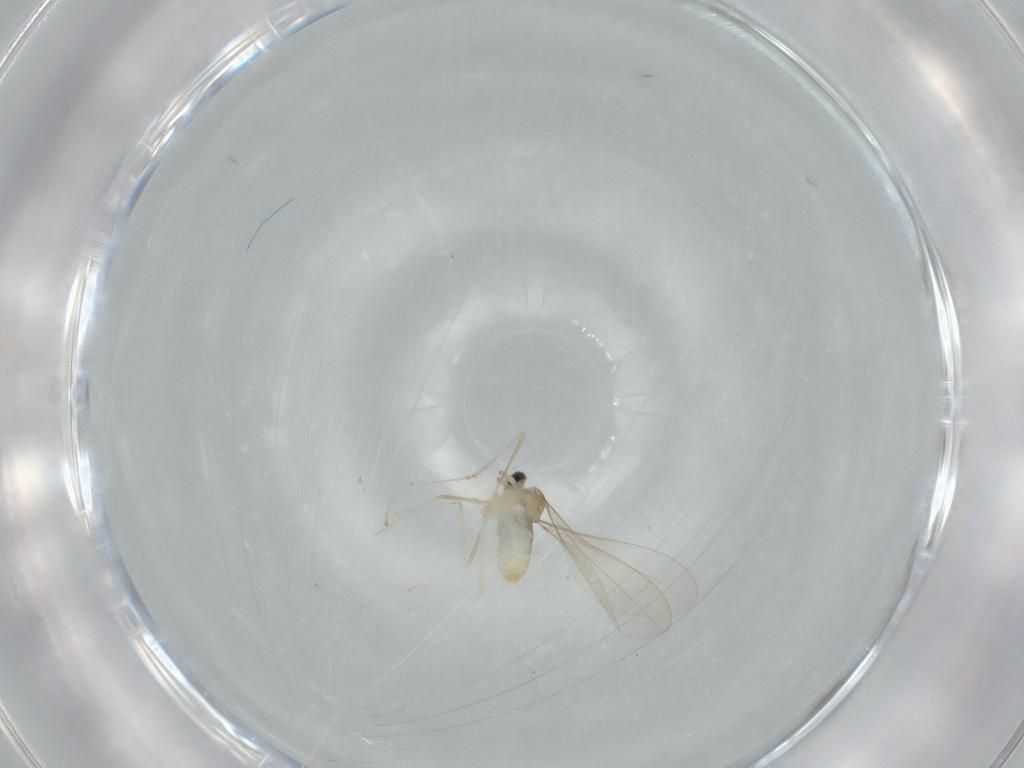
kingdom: Animalia
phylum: Arthropoda
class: Insecta
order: Diptera
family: Cecidomyiidae
